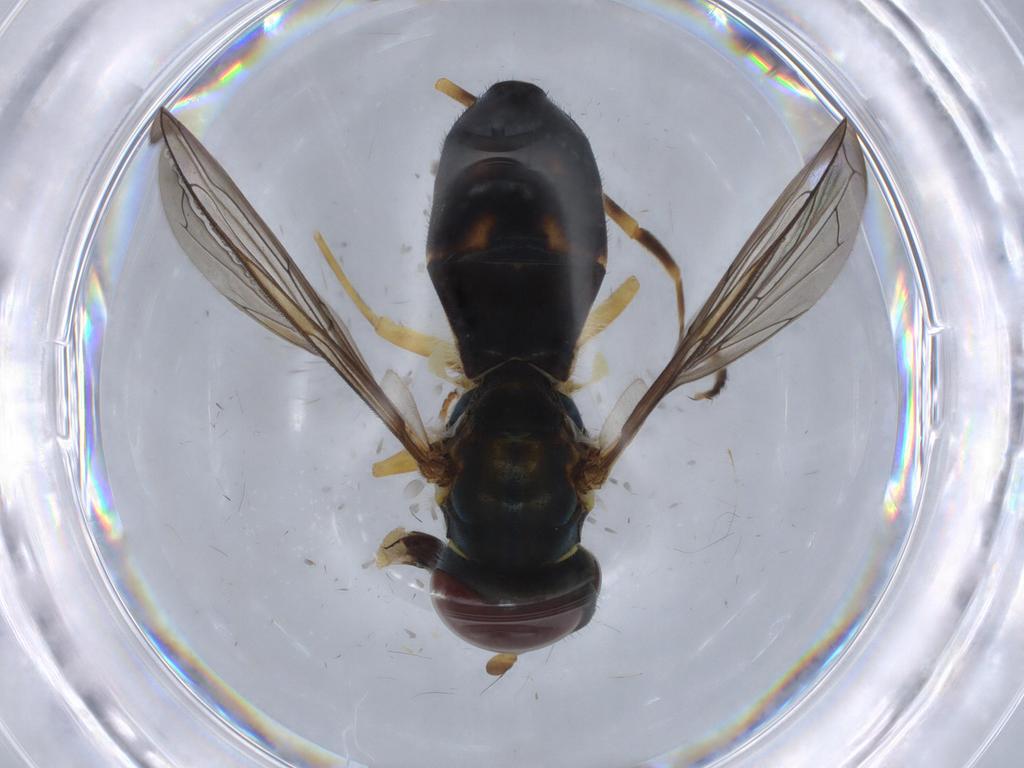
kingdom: Animalia
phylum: Arthropoda
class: Insecta
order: Diptera
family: Syrphidae
